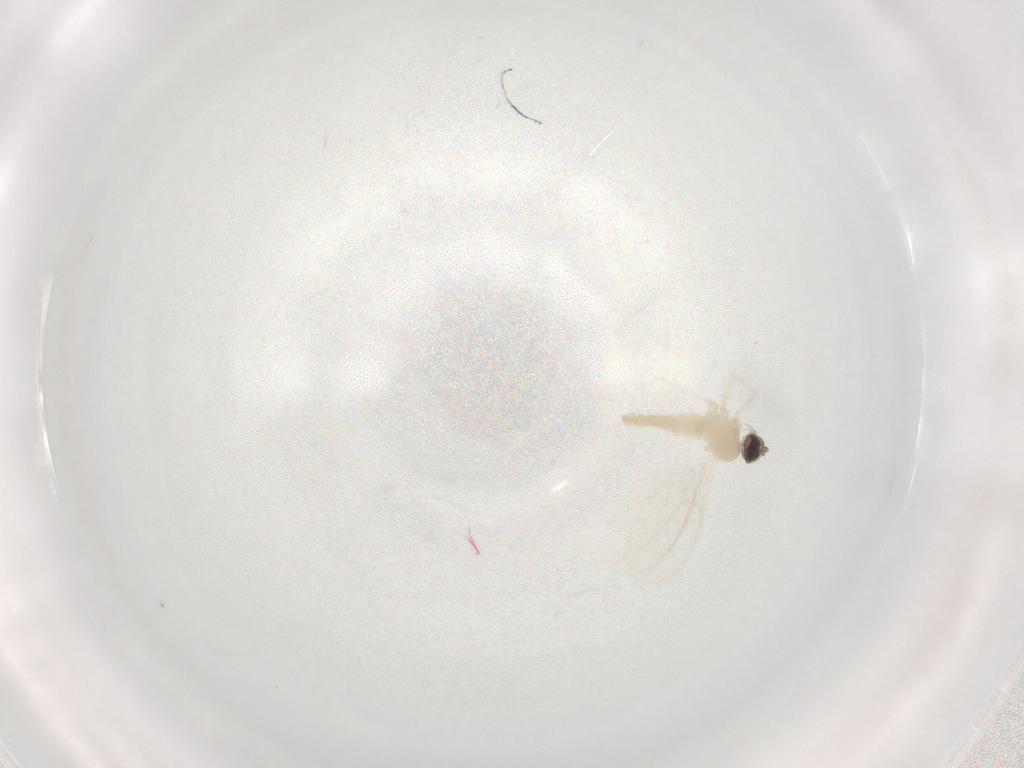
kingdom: Animalia
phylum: Arthropoda
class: Insecta
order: Diptera
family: Cecidomyiidae
